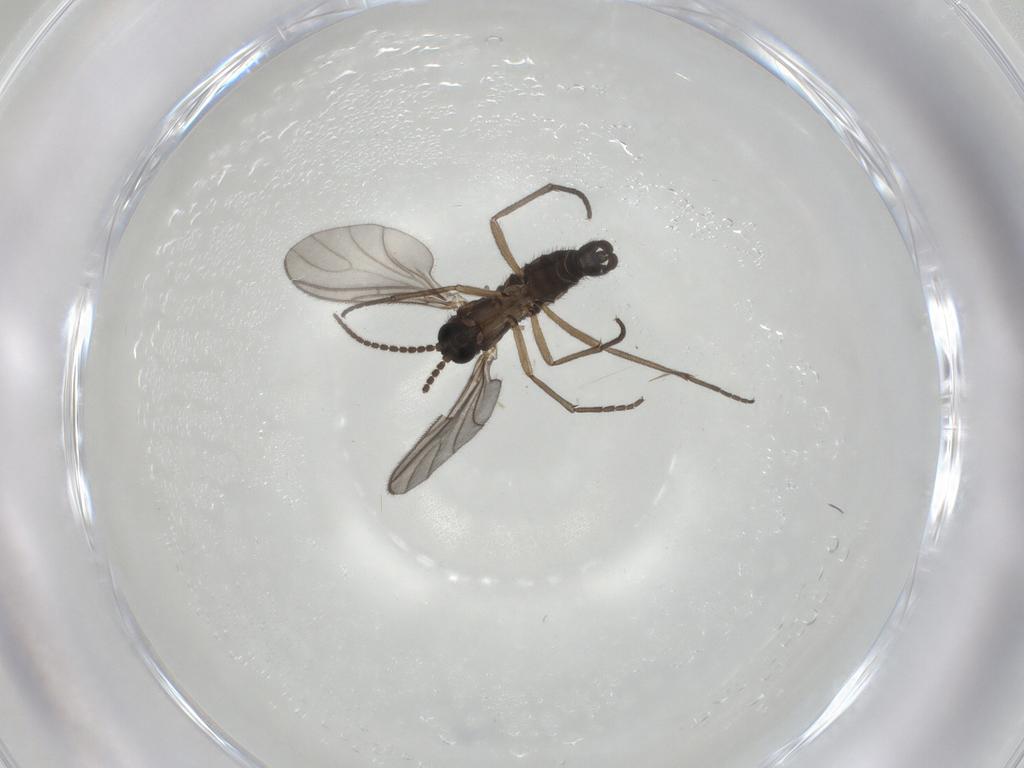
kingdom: Animalia
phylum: Arthropoda
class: Insecta
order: Diptera
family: Sciaridae
